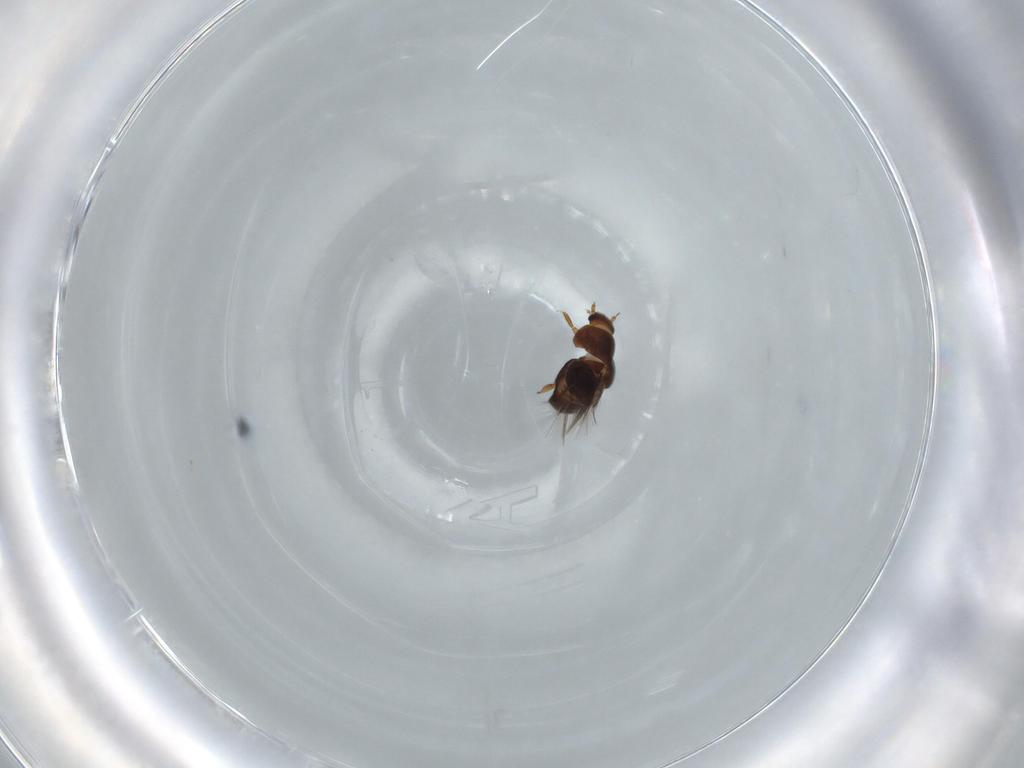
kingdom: Animalia
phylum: Arthropoda
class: Insecta
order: Coleoptera
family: Ptiliidae
